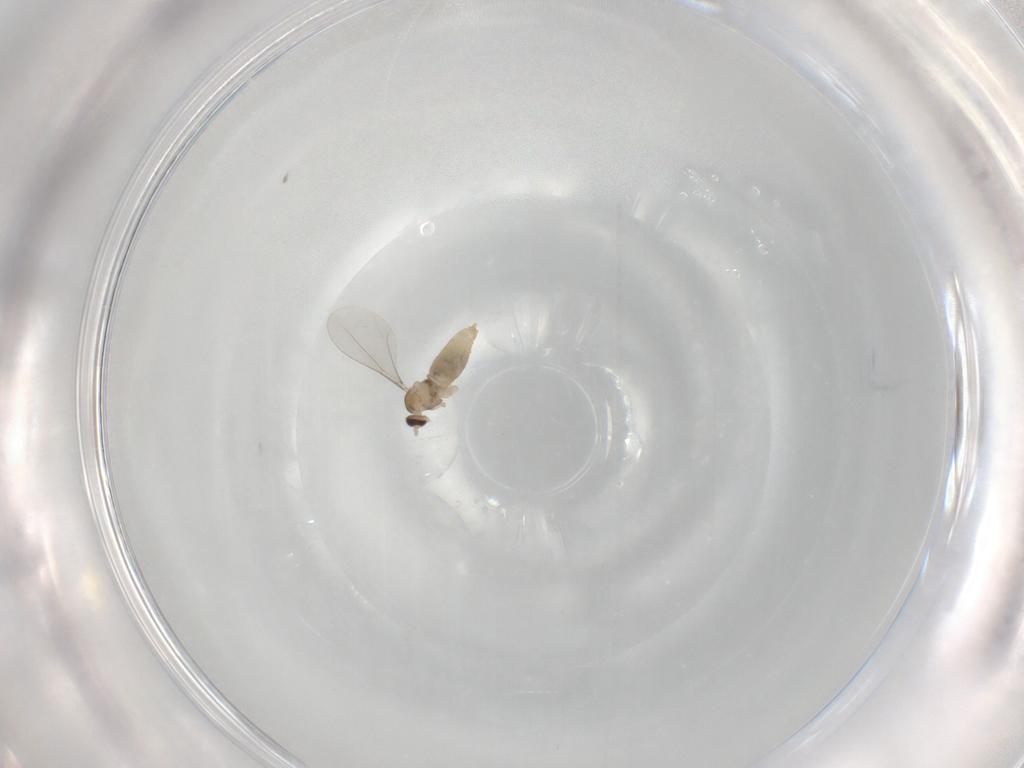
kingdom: Animalia
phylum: Arthropoda
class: Insecta
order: Diptera
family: Cecidomyiidae
